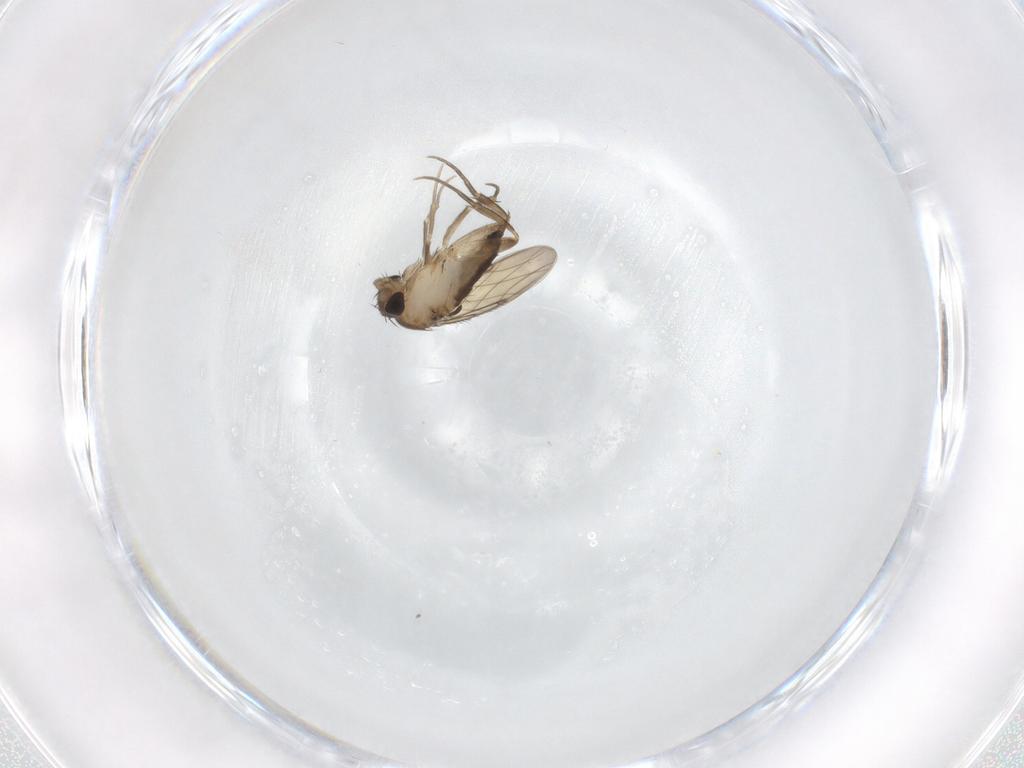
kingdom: Animalia
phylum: Arthropoda
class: Insecta
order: Diptera
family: Phoridae
